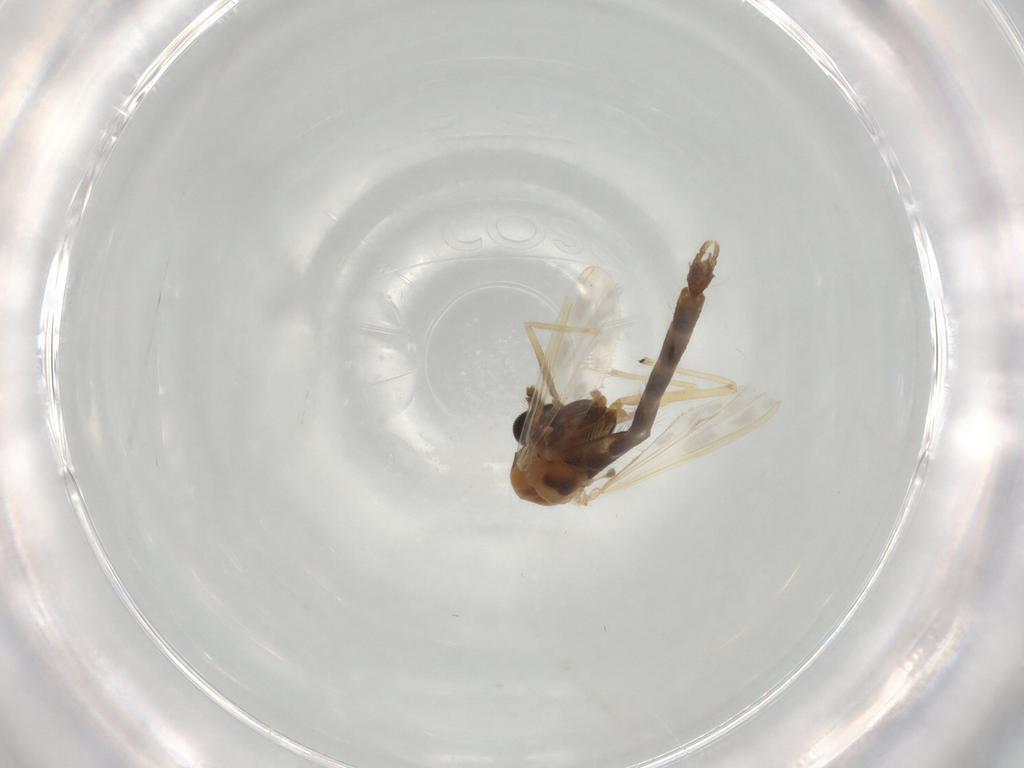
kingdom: Animalia
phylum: Arthropoda
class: Insecta
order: Diptera
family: Chironomidae
